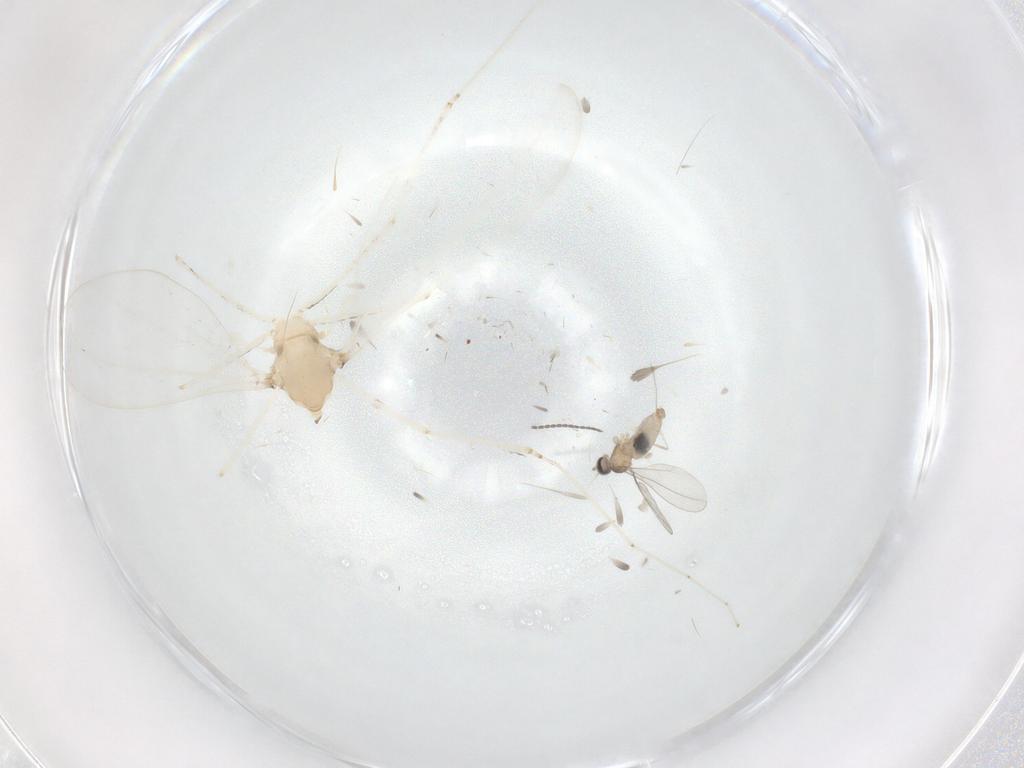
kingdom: Animalia
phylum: Arthropoda
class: Insecta
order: Diptera
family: Cecidomyiidae
